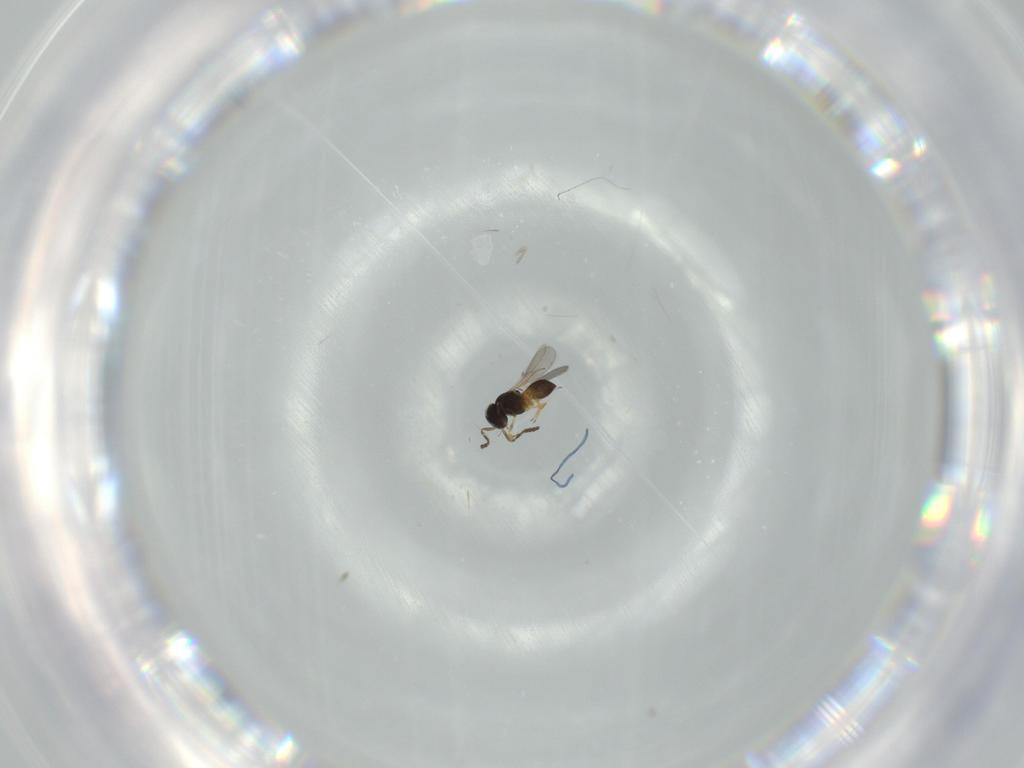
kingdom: Animalia
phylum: Arthropoda
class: Insecta
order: Hymenoptera
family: Scelionidae
